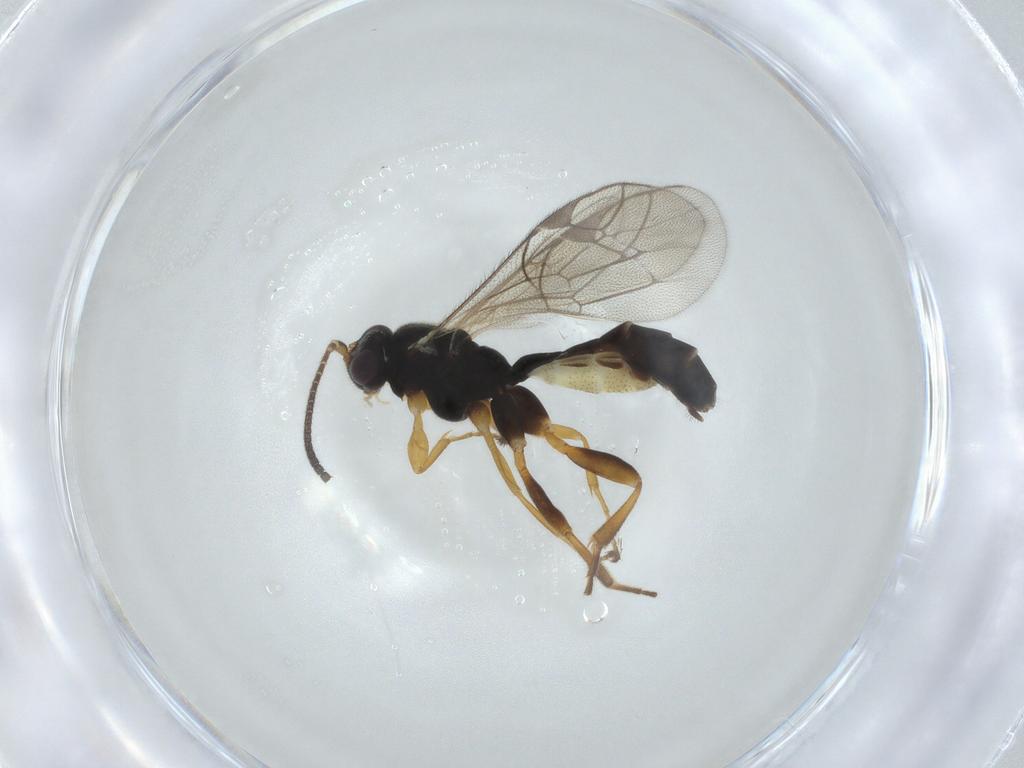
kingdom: Animalia
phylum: Arthropoda
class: Insecta
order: Hymenoptera
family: Ichneumonidae
